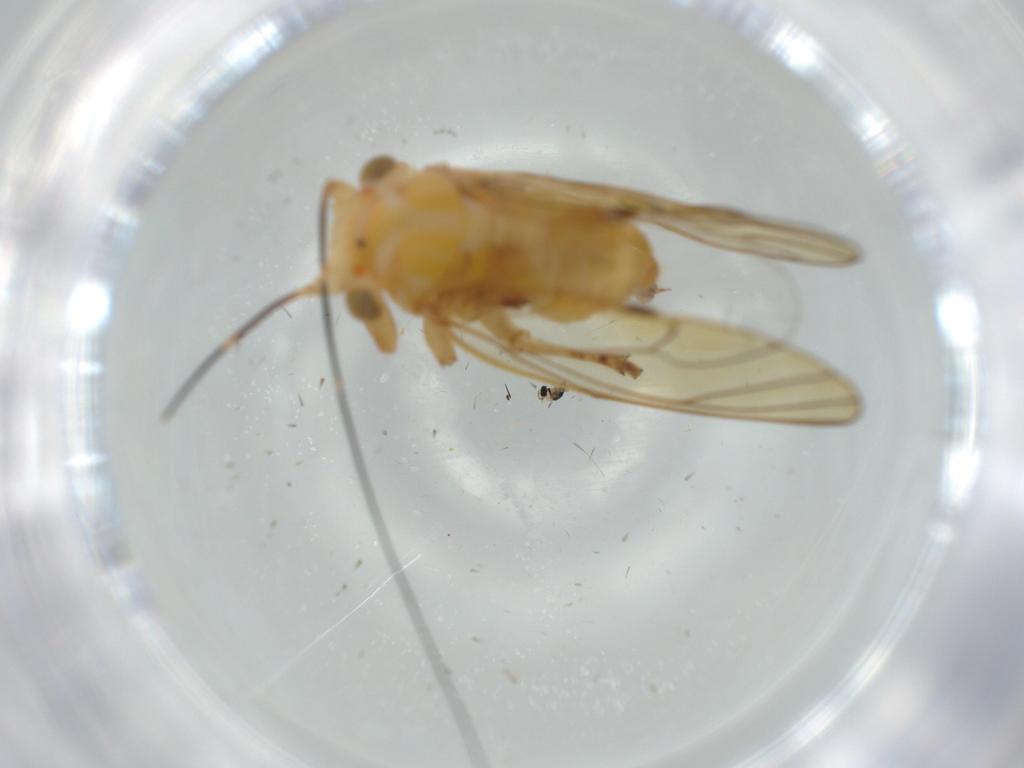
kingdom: Animalia
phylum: Arthropoda
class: Insecta
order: Hemiptera
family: Psyllidae
